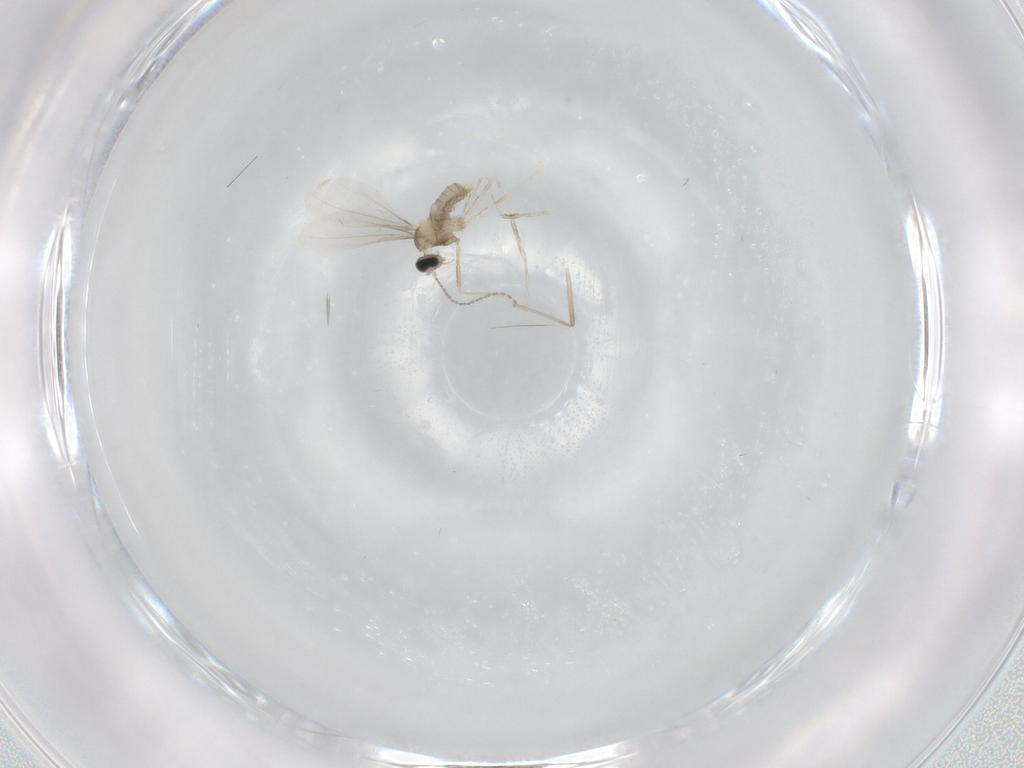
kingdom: Animalia
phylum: Arthropoda
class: Insecta
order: Diptera
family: Cecidomyiidae
